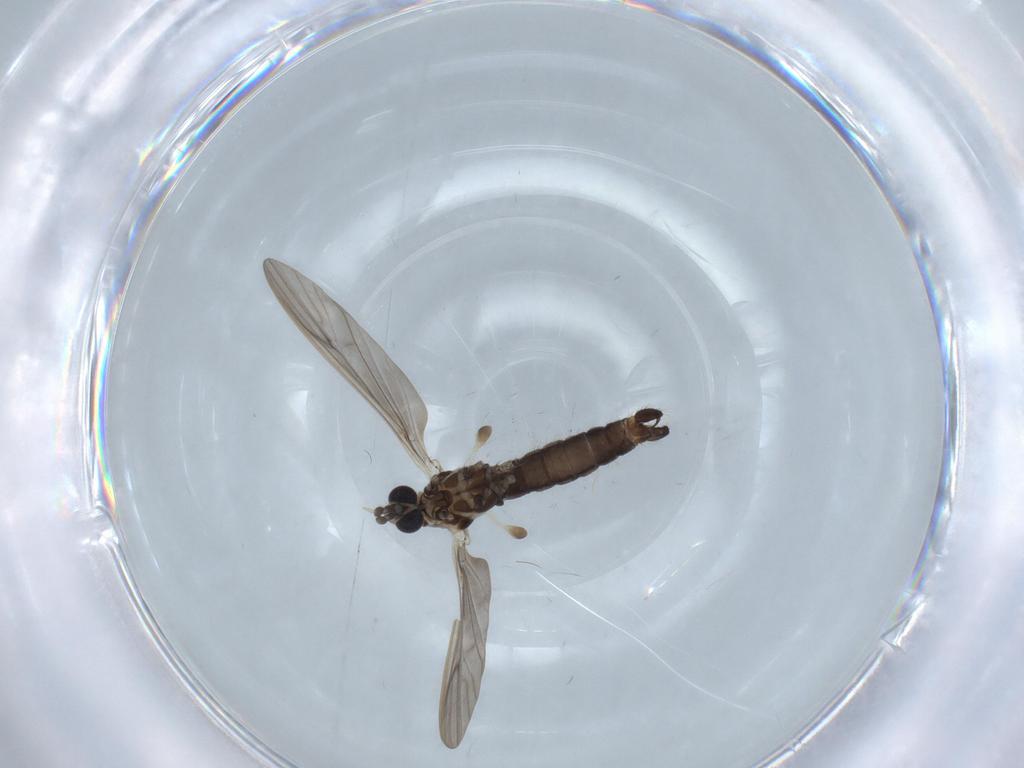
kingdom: Animalia
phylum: Arthropoda
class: Insecta
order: Diptera
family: Limoniidae
